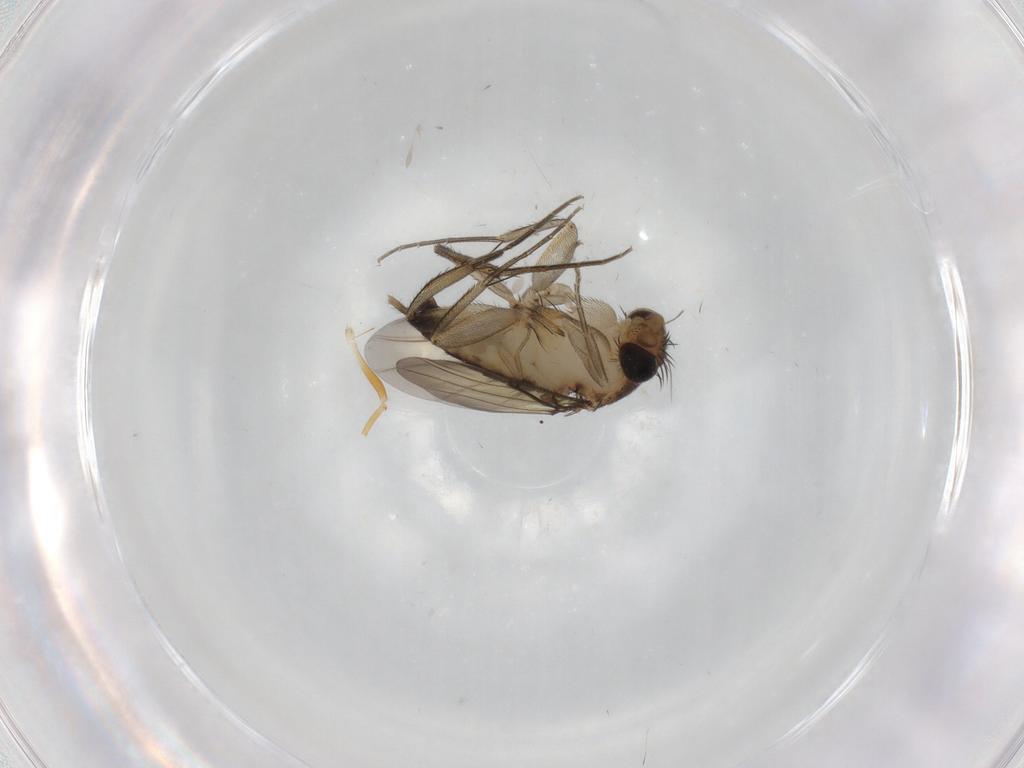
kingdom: Animalia
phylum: Arthropoda
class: Insecta
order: Diptera
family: Phoridae
